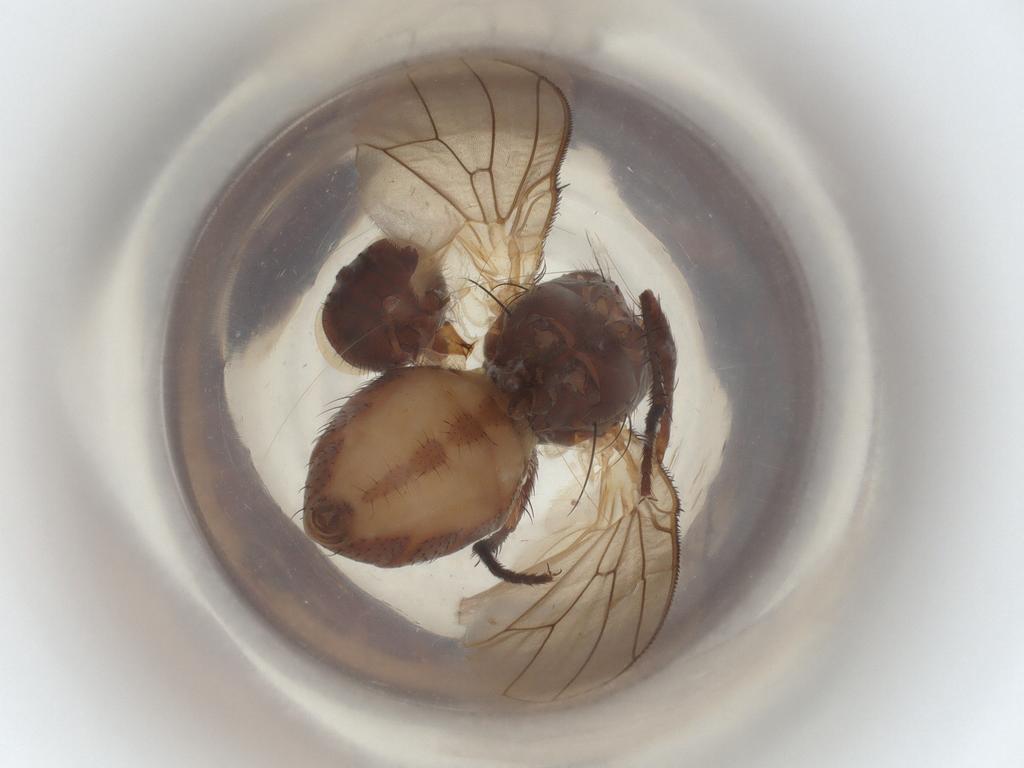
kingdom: Animalia
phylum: Arthropoda
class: Insecta
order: Diptera
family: Anthomyiidae
